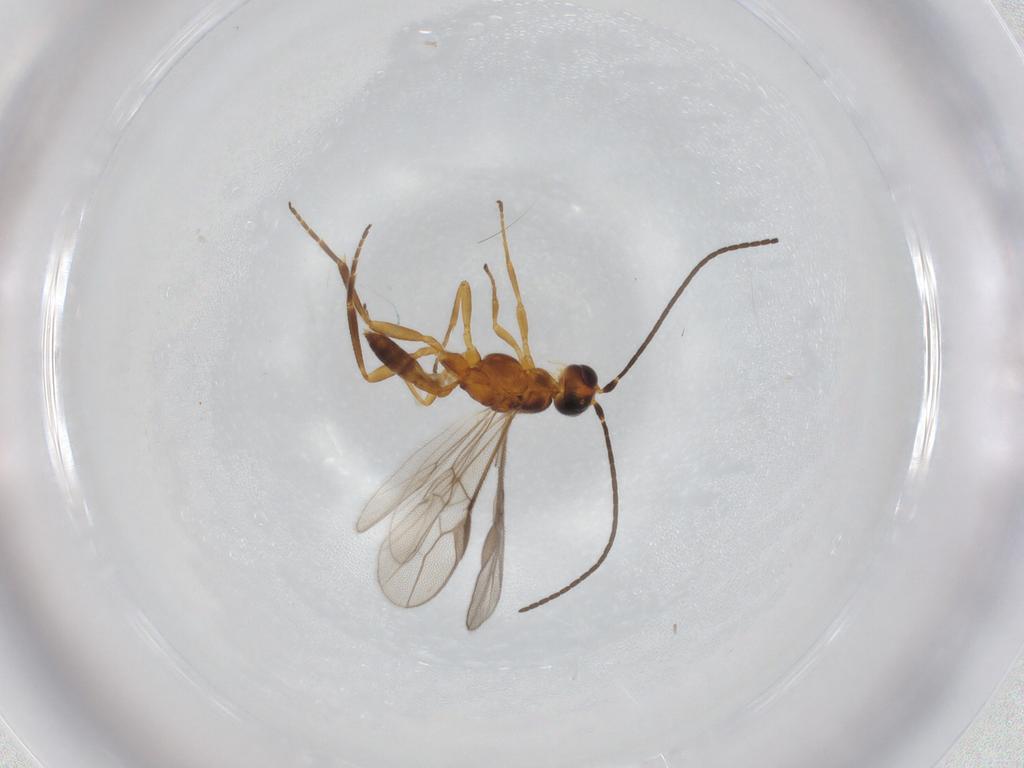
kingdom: Animalia
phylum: Arthropoda
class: Insecta
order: Hymenoptera
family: Braconidae
